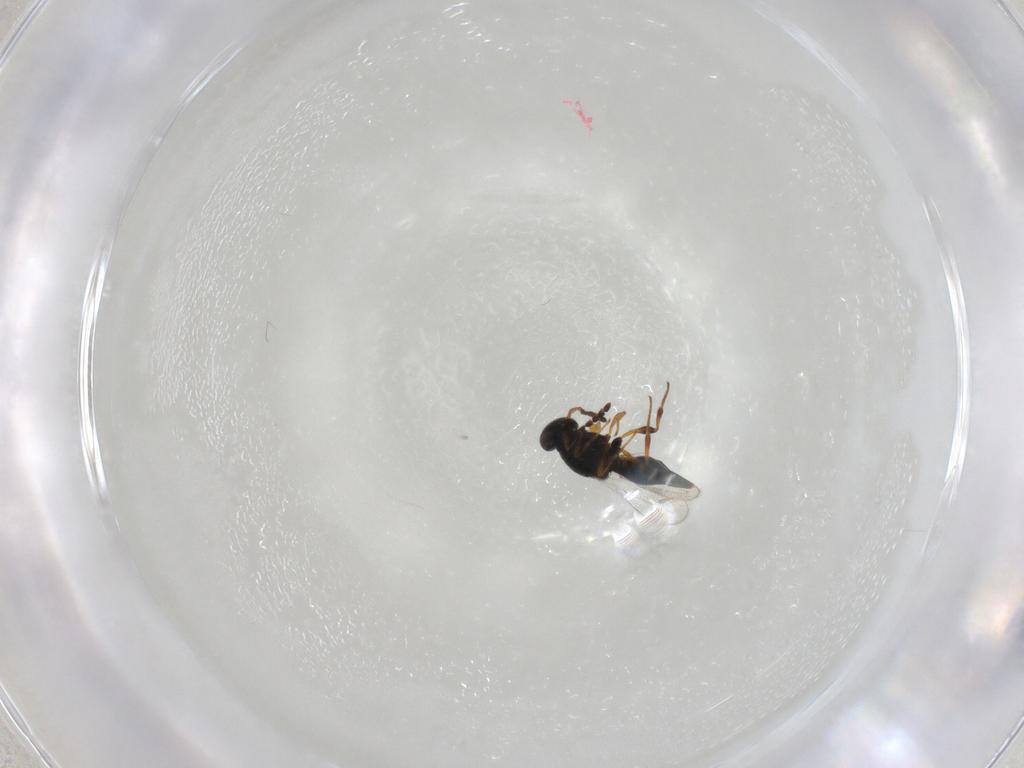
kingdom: Animalia
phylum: Arthropoda
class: Insecta
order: Hymenoptera
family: Platygastridae
